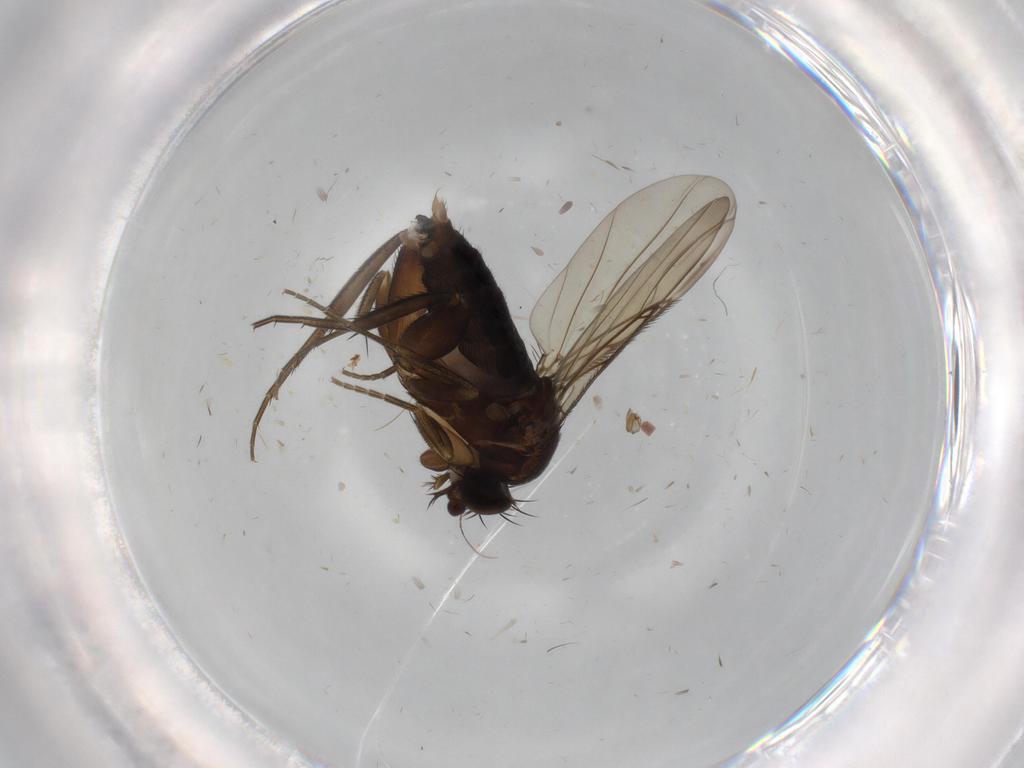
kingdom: Animalia
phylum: Arthropoda
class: Insecta
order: Diptera
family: Phoridae
